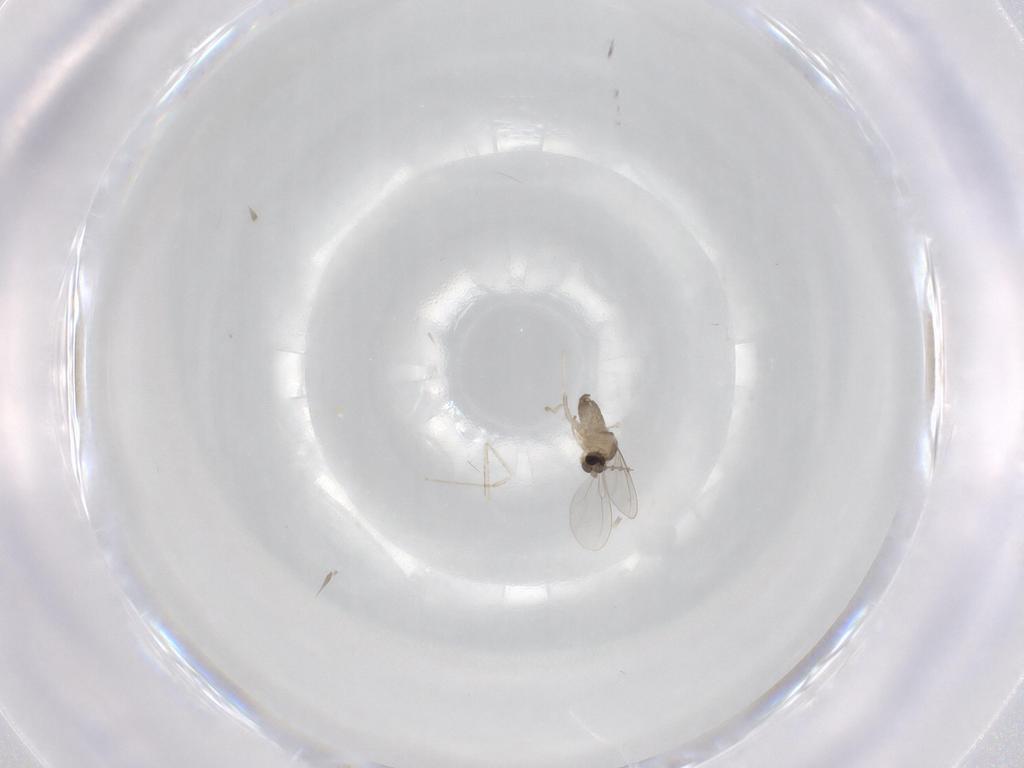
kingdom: Animalia
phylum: Arthropoda
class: Insecta
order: Diptera
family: Cecidomyiidae
